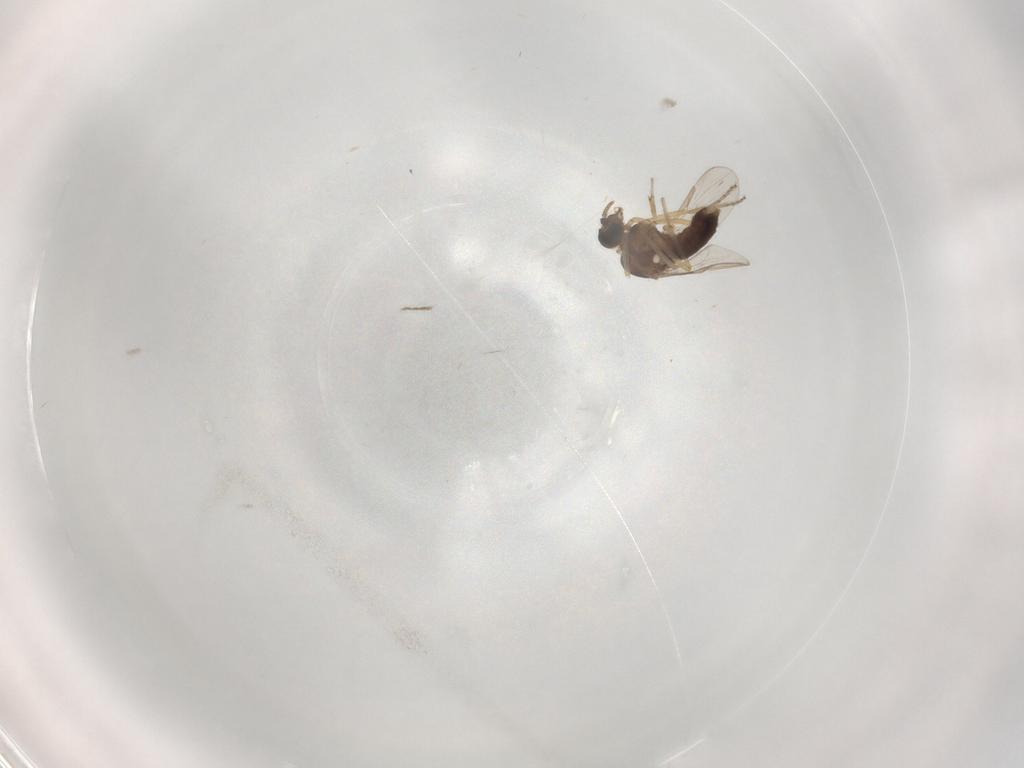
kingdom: Animalia
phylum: Arthropoda
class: Insecta
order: Diptera
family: Ceratopogonidae
